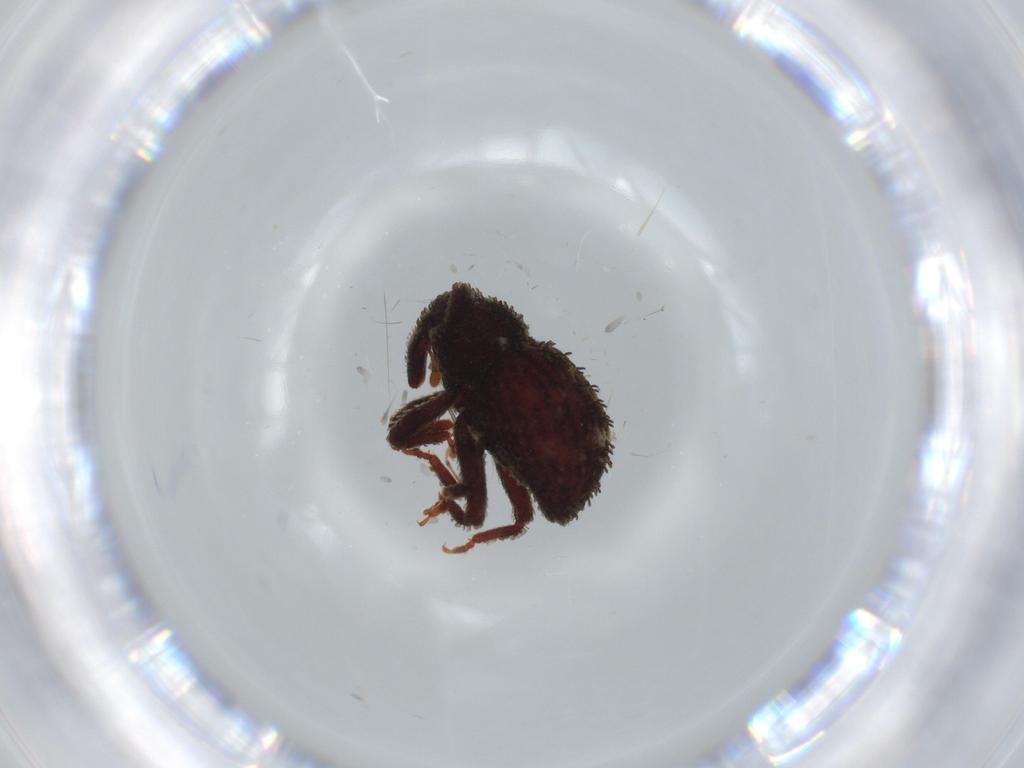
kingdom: Animalia
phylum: Arthropoda
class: Insecta
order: Coleoptera
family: Curculionidae
